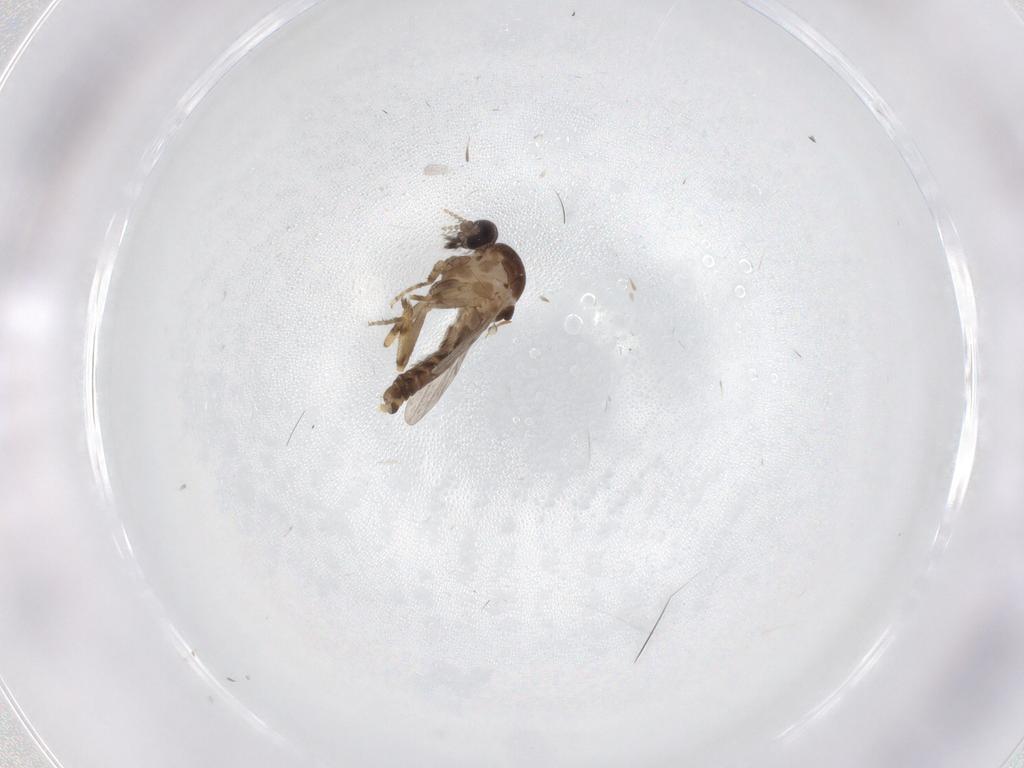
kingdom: Animalia
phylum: Arthropoda
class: Insecta
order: Diptera
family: Ceratopogonidae
